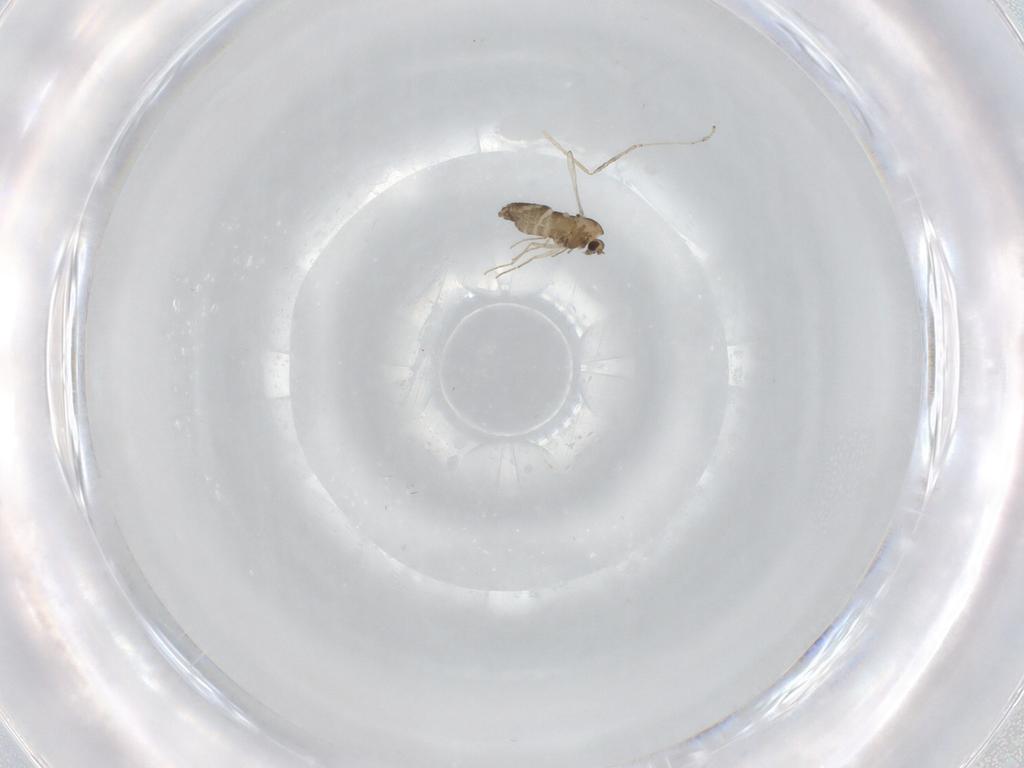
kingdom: Animalia
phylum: Arthropoda
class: Insecta
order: Diptera
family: Chironomidae
